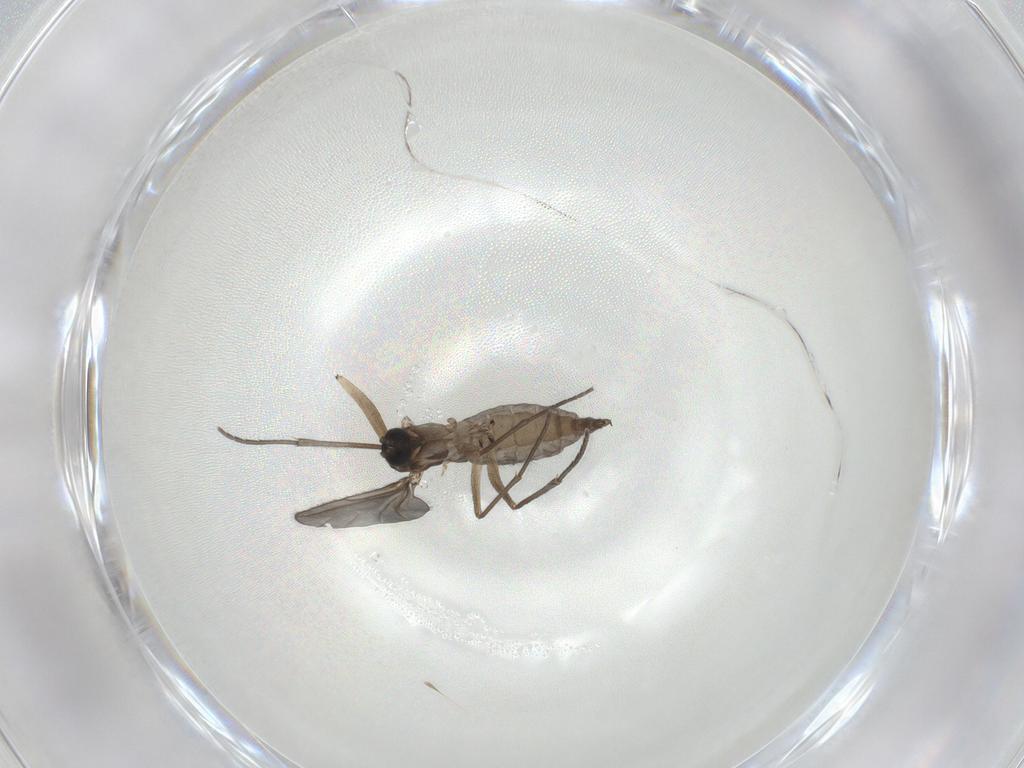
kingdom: Animalia
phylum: Arthropoda
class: Insecta
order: Diptera
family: Sciaridae
